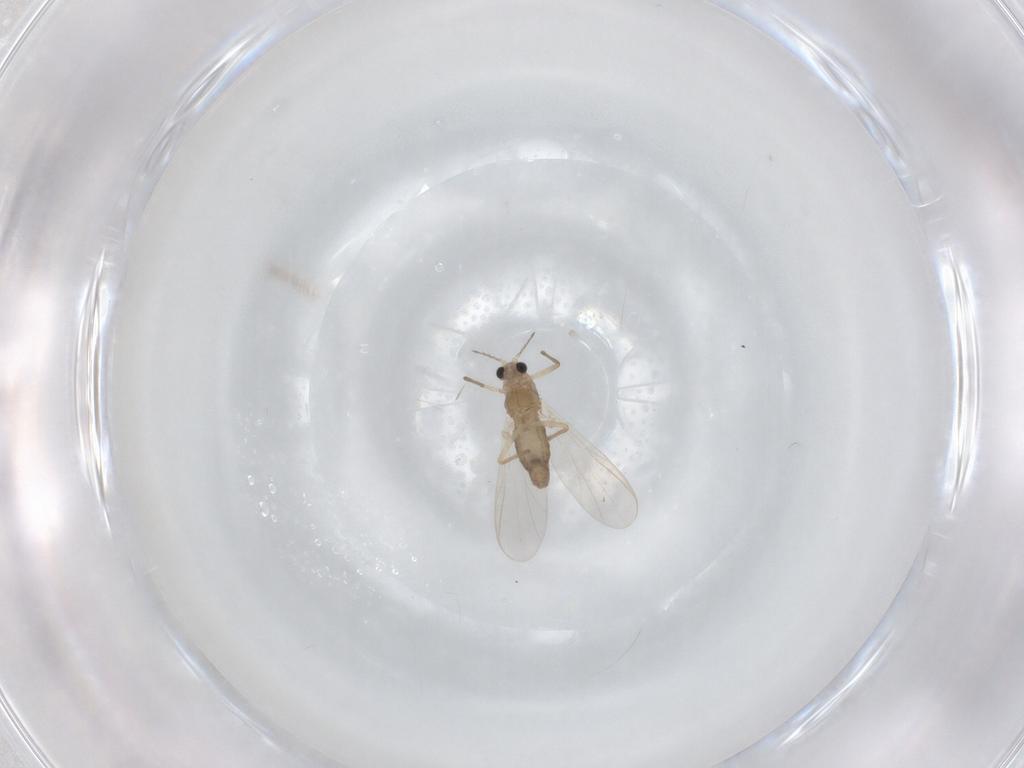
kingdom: Animalia
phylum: Arthropoda
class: Insecta
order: Diptera
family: Chironomidae
